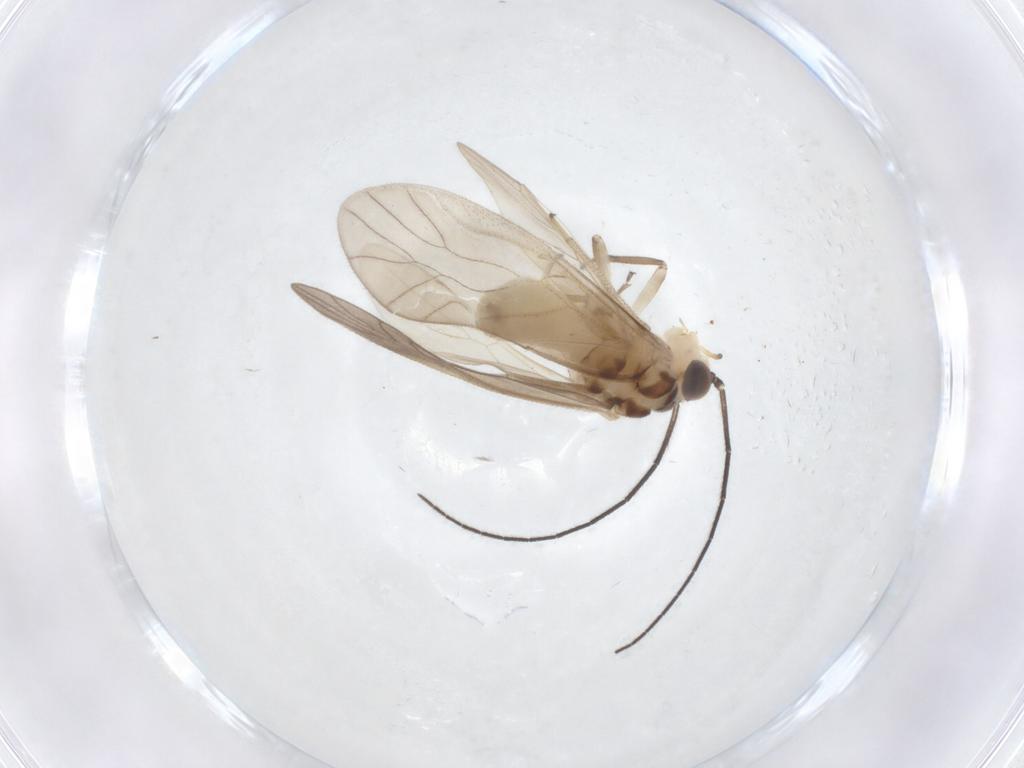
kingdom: Animalia
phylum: Arthropoda
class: Insecta
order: Psocodea
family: Caeciliusidae
